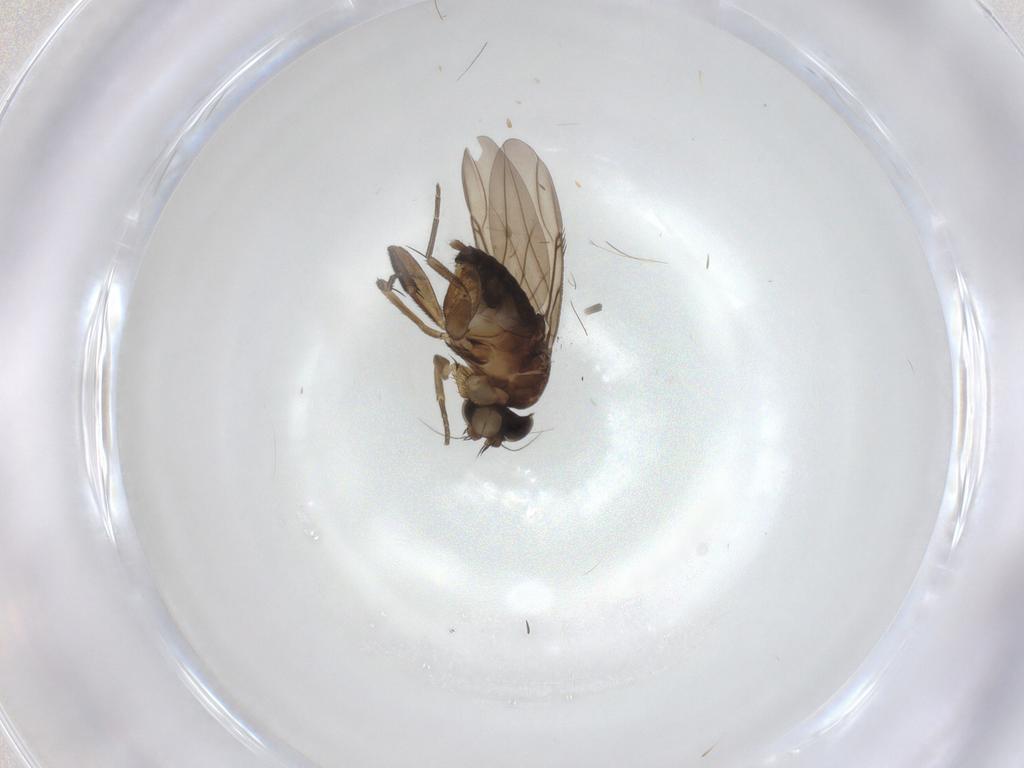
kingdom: Animalia
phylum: Arthropoda
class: Insecta
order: Diptera
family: Phoridae
